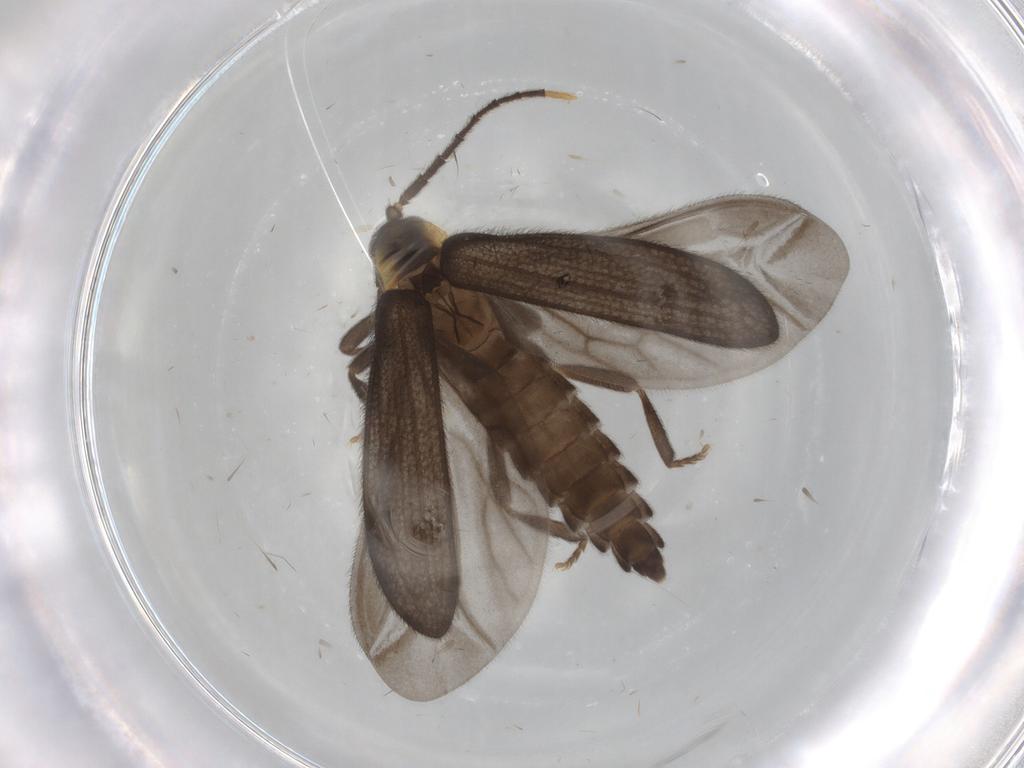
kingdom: Animalia
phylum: Arthropoda
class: Insecta
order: Coleoptera
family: Lycidae
